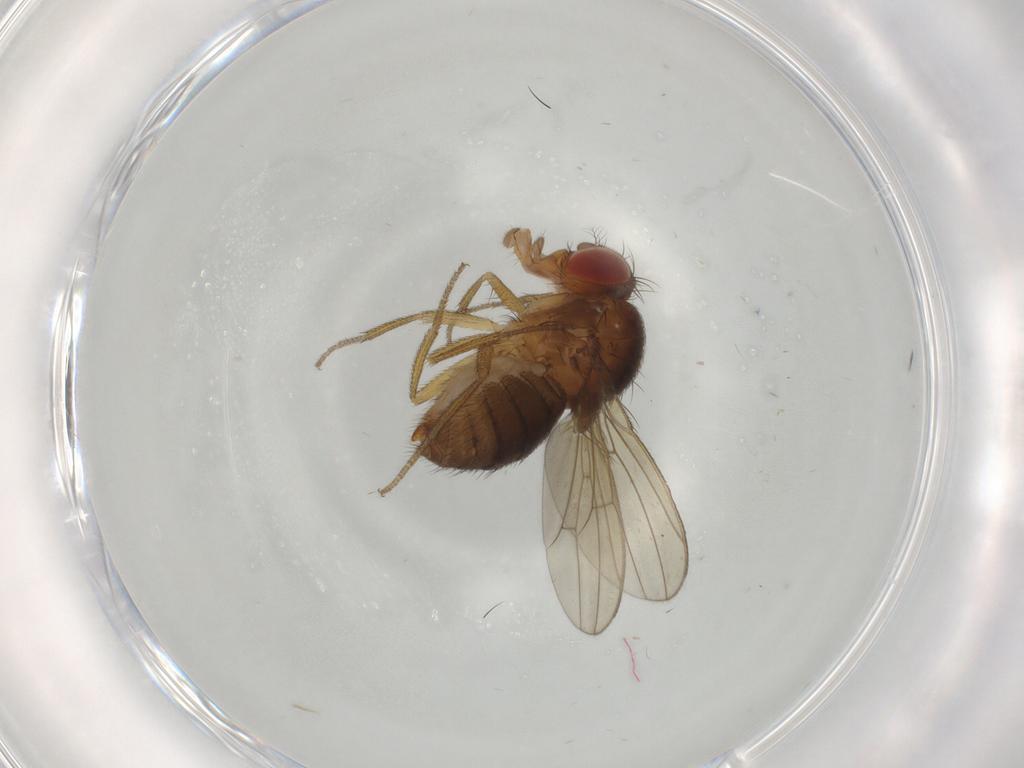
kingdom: Animalia
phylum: Arthropoda
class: Insecta
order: Diptera
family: Drosophilidae
